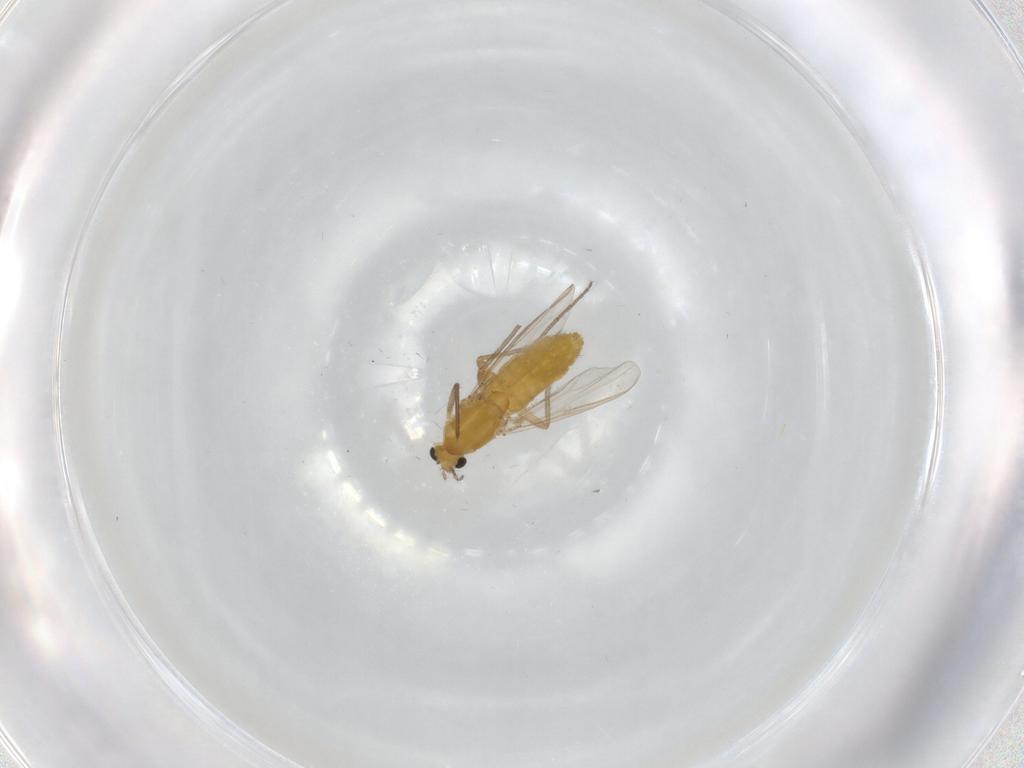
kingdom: Animalia
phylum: Arthropoda
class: Insecta
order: Diptera
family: Chironomidae
